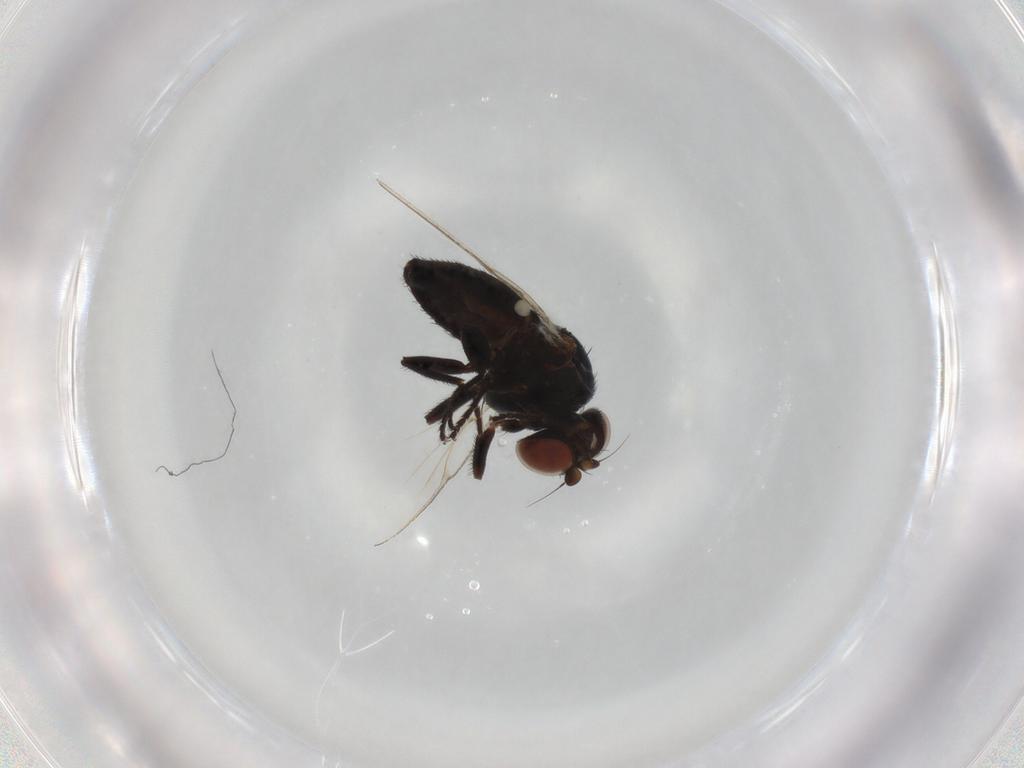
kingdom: Animalia
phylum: Arthropoda
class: Insecta
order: Diptera
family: Milichiidae
